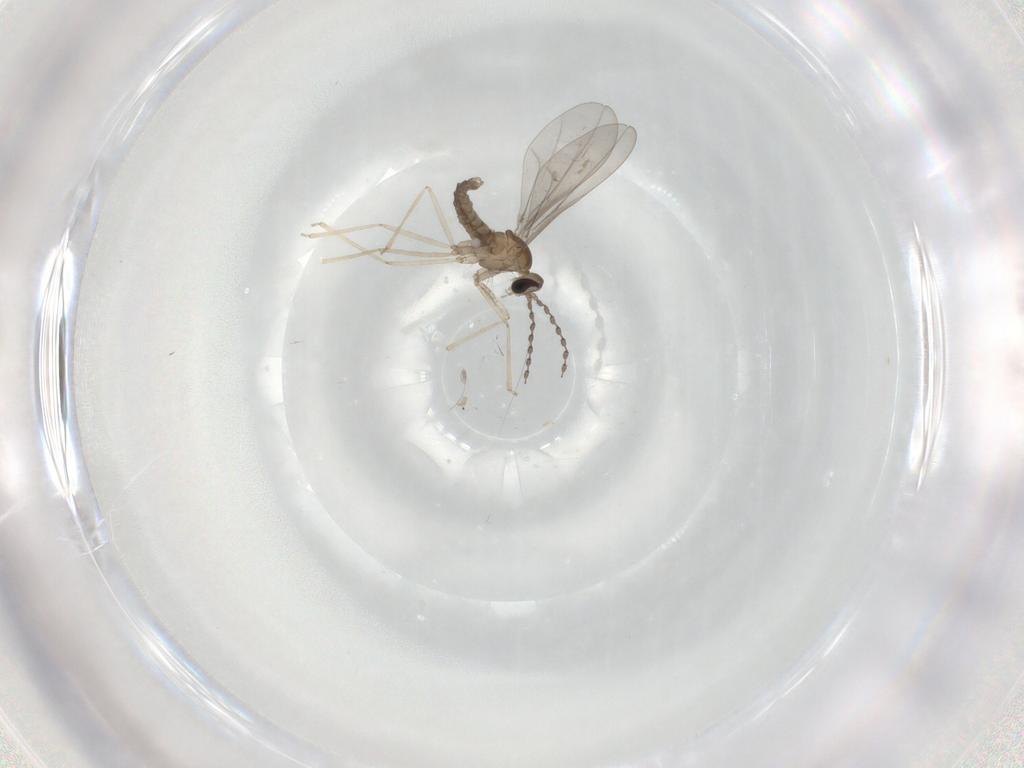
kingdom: Animalia
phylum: Arthropoda
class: Insecta
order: Diptera
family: Cecidomyiidae
